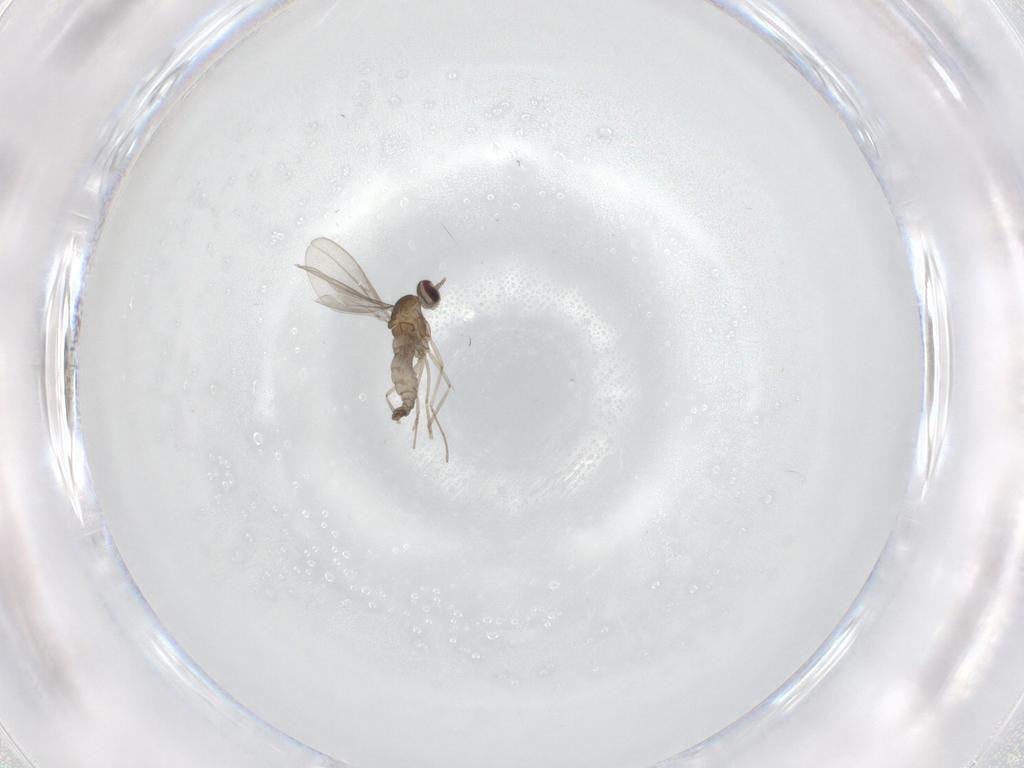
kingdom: Animalia
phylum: Arthropoda
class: Insecta
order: Diptera
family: Cecidomyiidae
